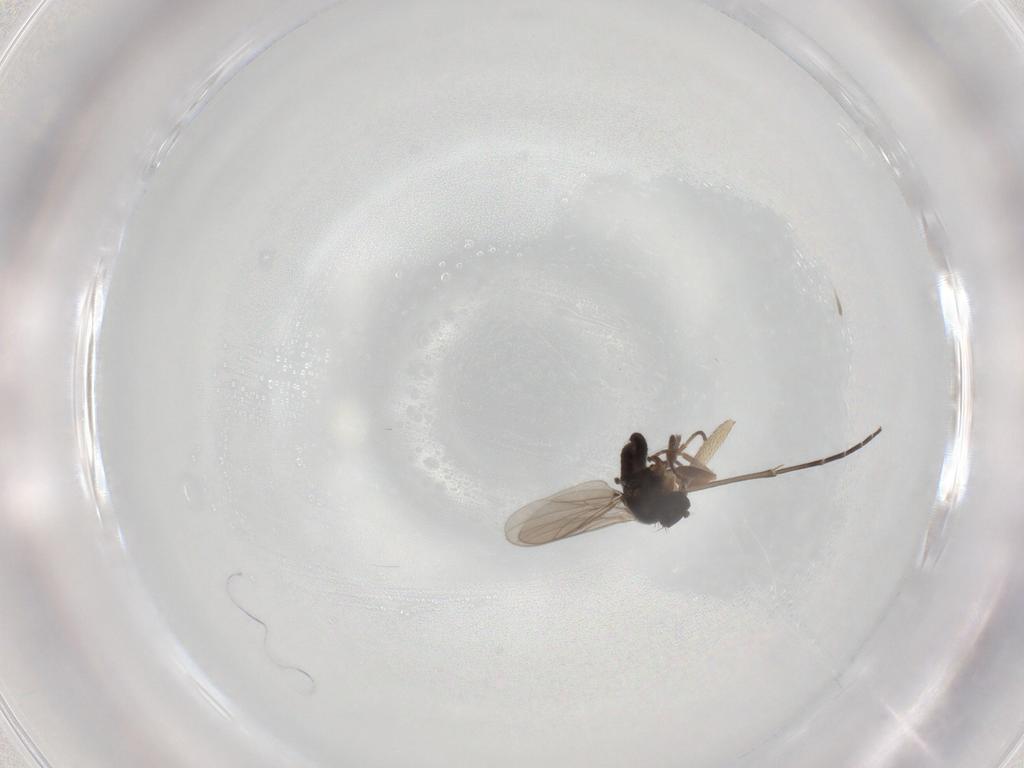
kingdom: Animalia
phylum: Arthropoda
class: Insecta
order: Diptera
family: Hybotidae
